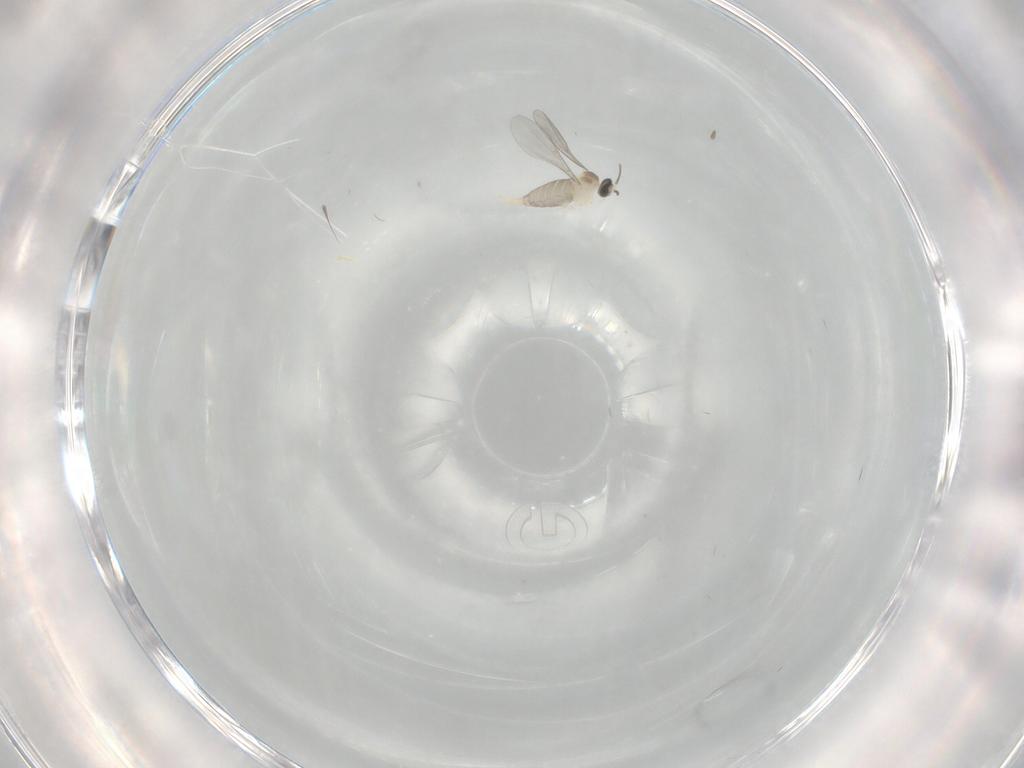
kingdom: Animalia
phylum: Arthropoda
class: Insecta
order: Diptera
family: Cecidomyiidae
